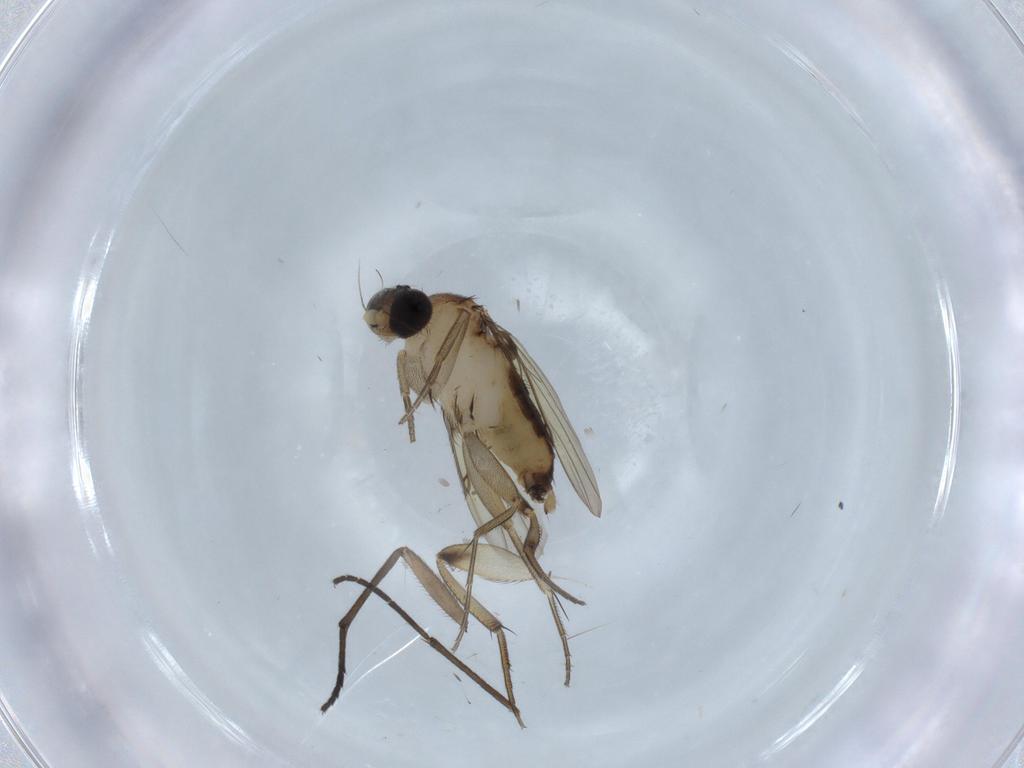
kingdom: Animalia
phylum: Arthropoda
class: Insecta
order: Diptera
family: Phoridae
